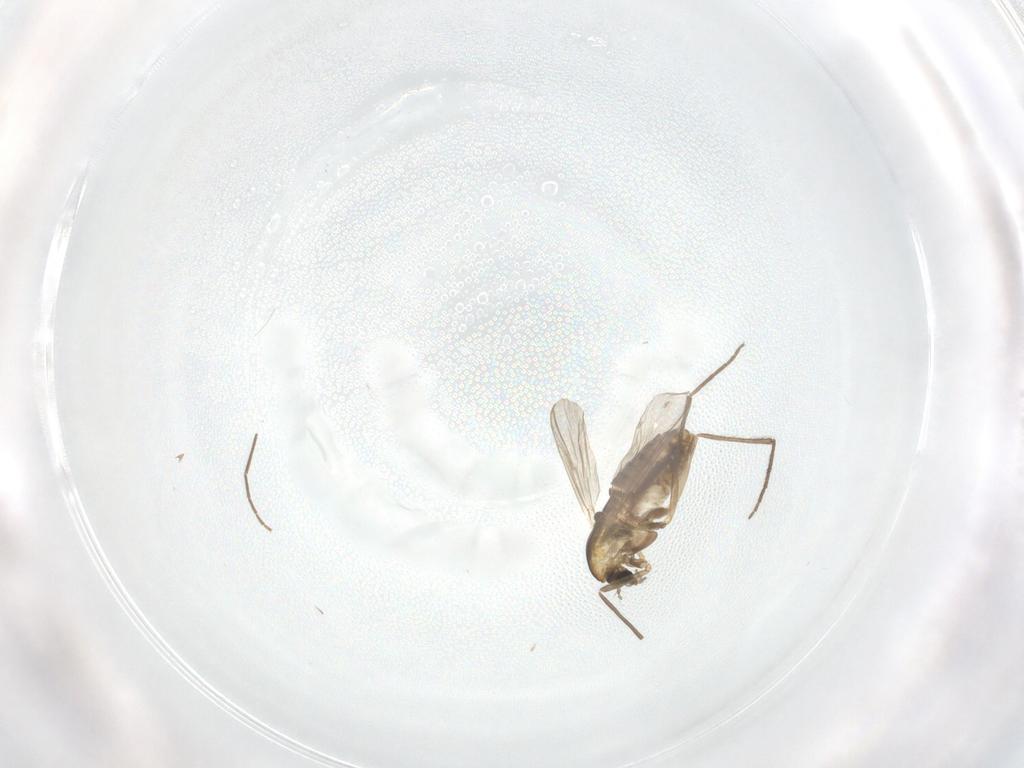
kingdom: Animalia
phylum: Arthropoda
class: Insecta
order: Diptera
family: Chironomidae
